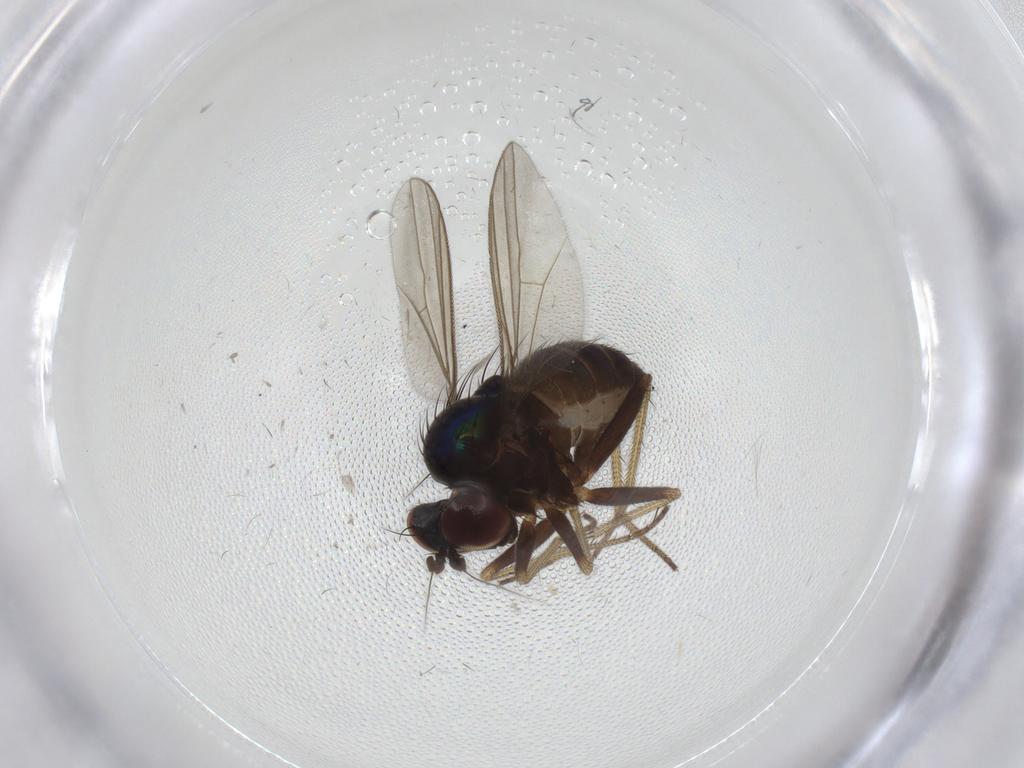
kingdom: Animalia
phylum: Arthropoda
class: Insecta
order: Diptera
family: Dolichopodidae
